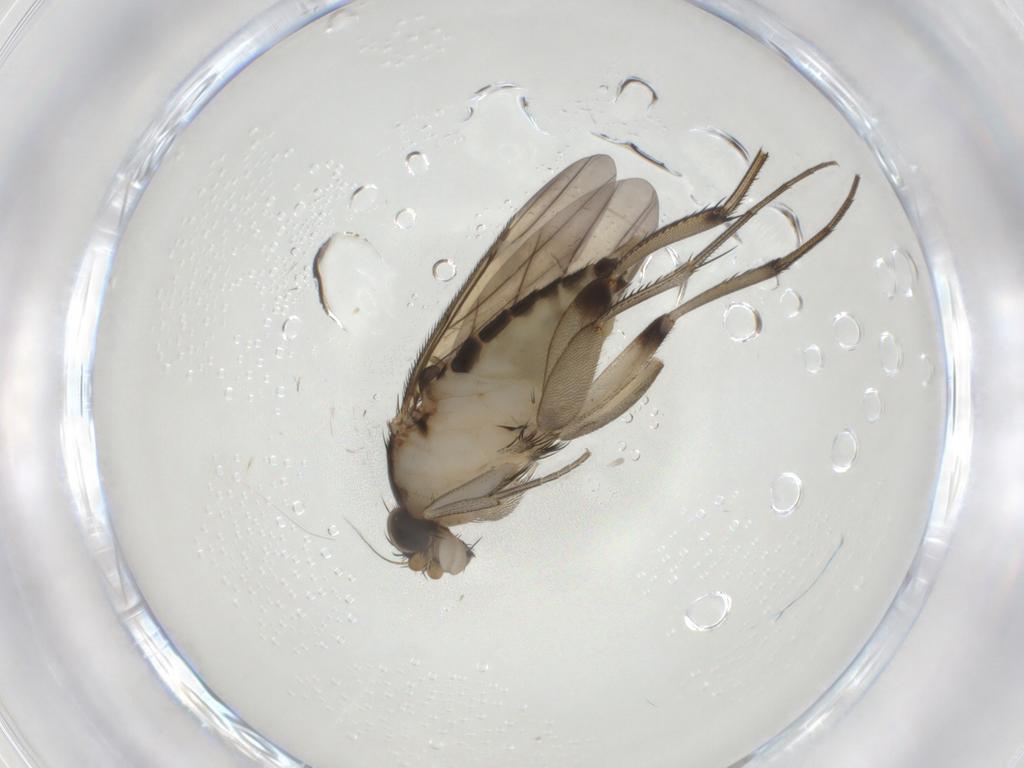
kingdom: Animalia
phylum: Arthropoda
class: Insecta
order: Diptera
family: Phoridae
